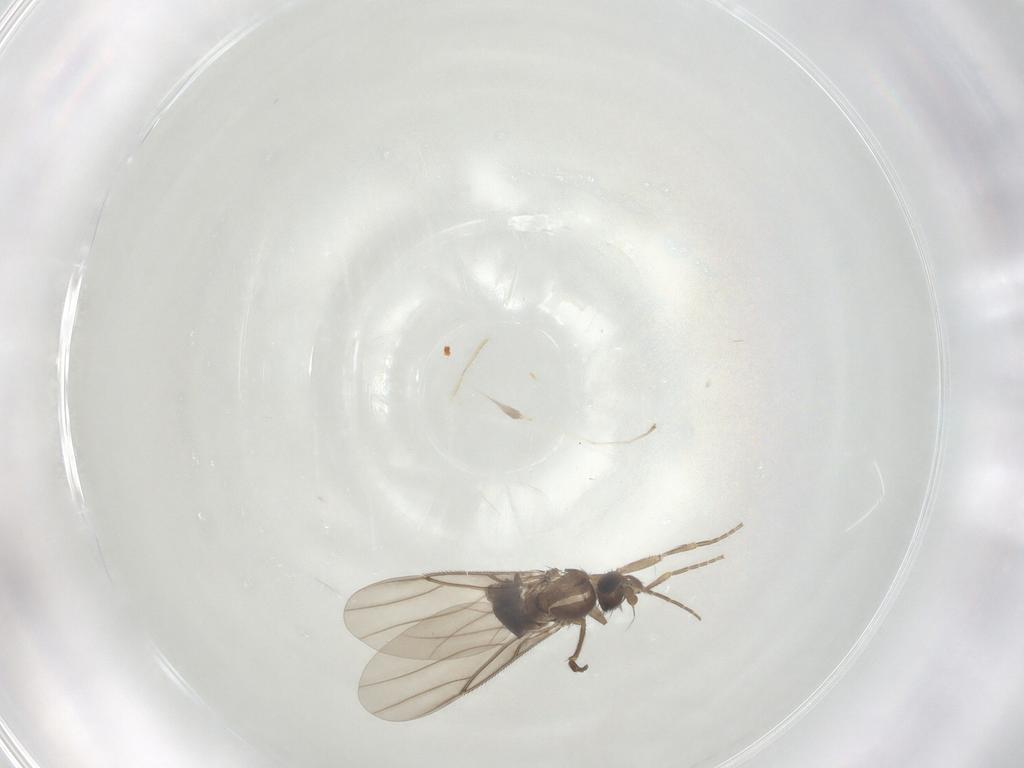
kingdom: Animalia
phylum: Arthropoda
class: Insecta
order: Diptera
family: Phoridae
